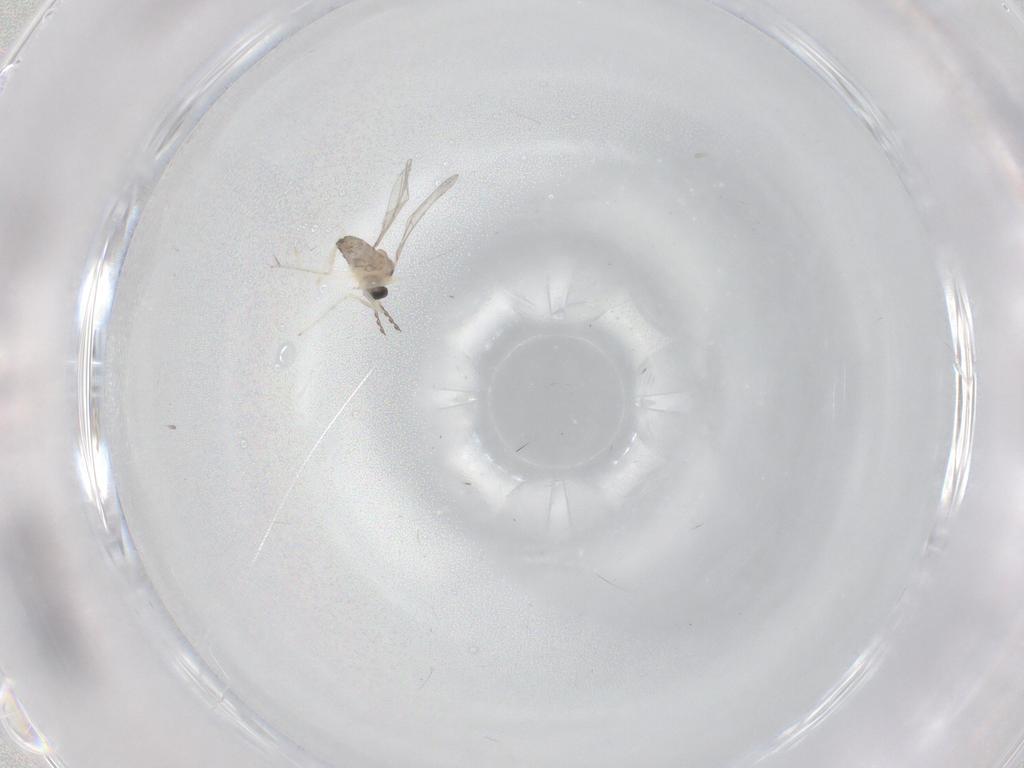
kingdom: Animalia
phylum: Arthropoda
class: Insecta
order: Diptera
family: Cecidomyiidae
